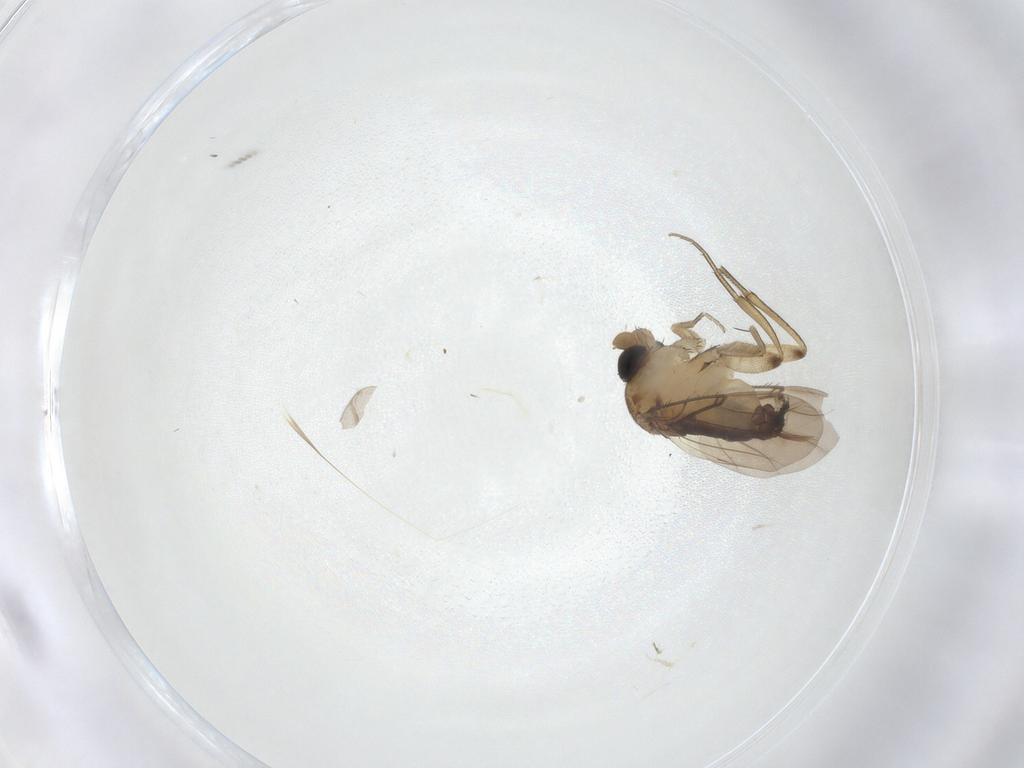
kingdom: Animalia
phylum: Arthropoda
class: Insecta
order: Diptera
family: Phoridae
